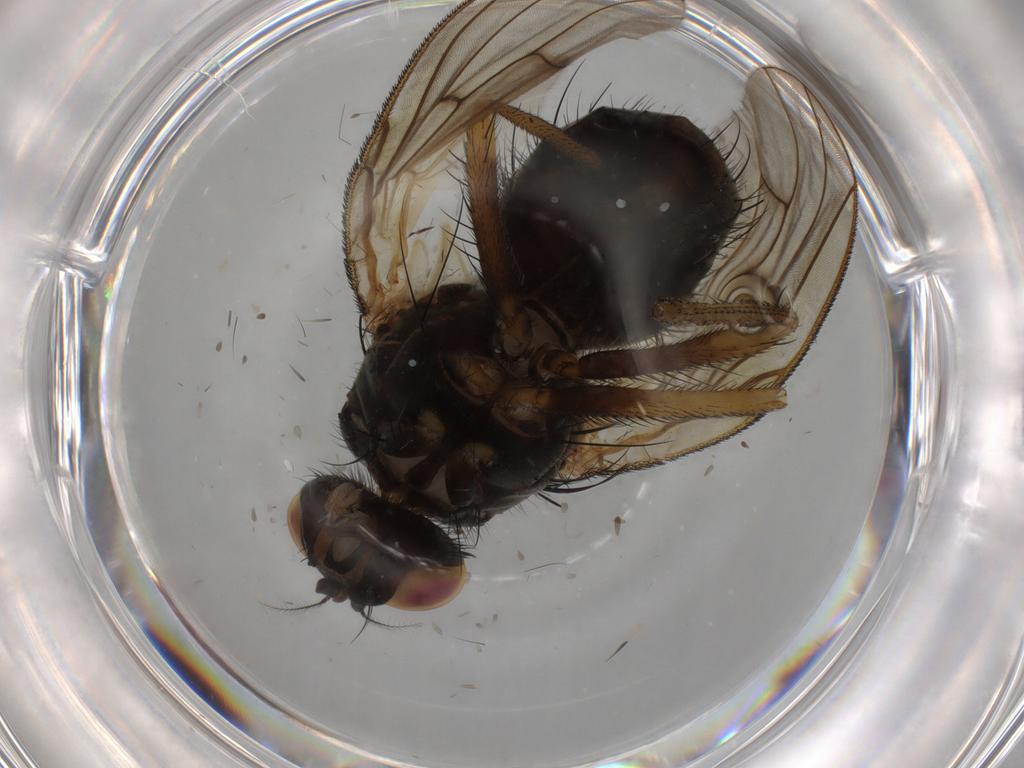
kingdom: Animalia
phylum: Arthropoda
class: Insecta
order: Diptera
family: Muscidae
